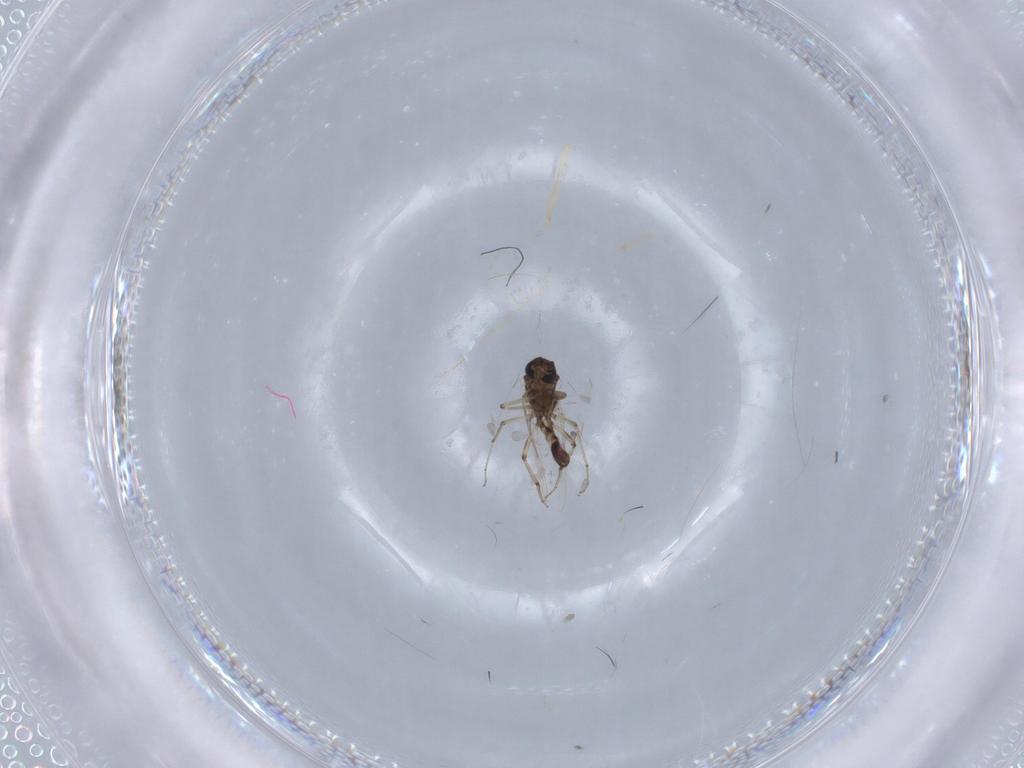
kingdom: Animalia
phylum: Arthropoda
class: Insecta
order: Diptera
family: Ceratopogonidae
